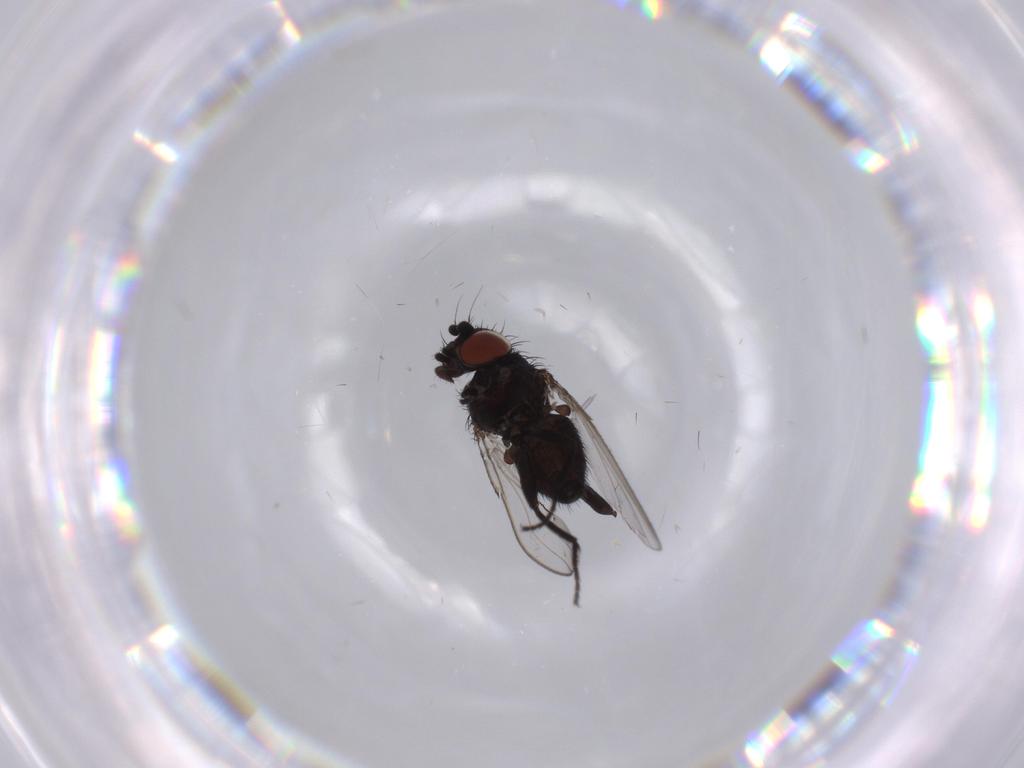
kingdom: Animalia
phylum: Arthropoda
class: Insecta
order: Diptera
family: Milichiidae
